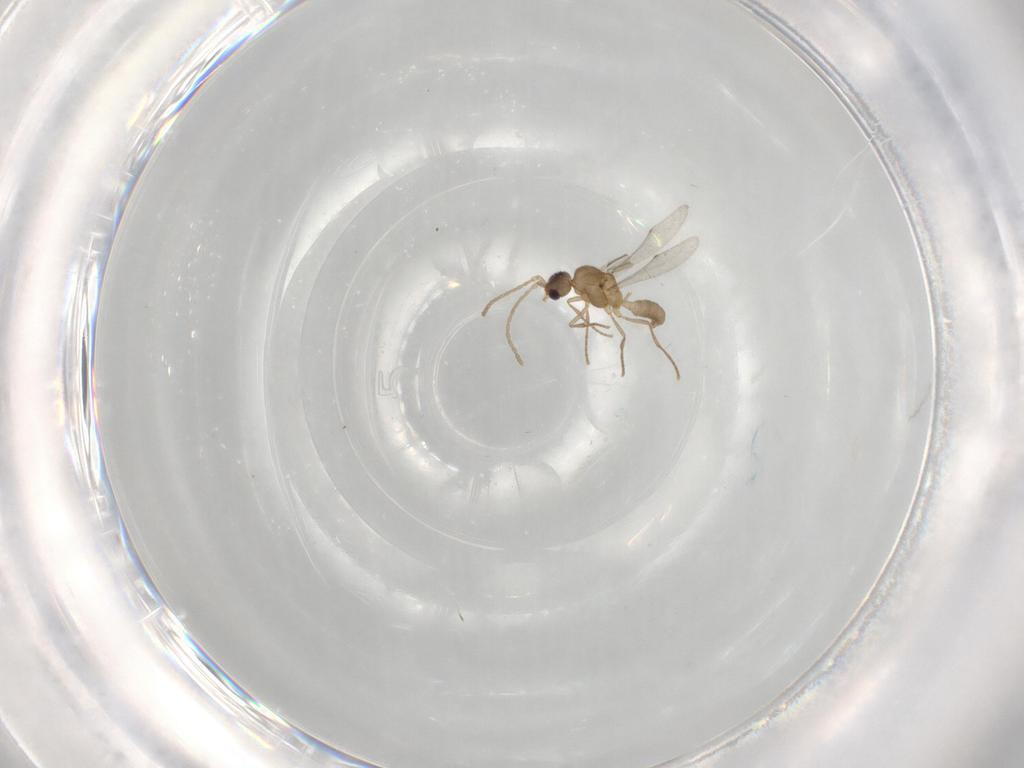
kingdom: Animalia
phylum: Arthropoda
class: Insecta
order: Hymenoptera
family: Formicidae
